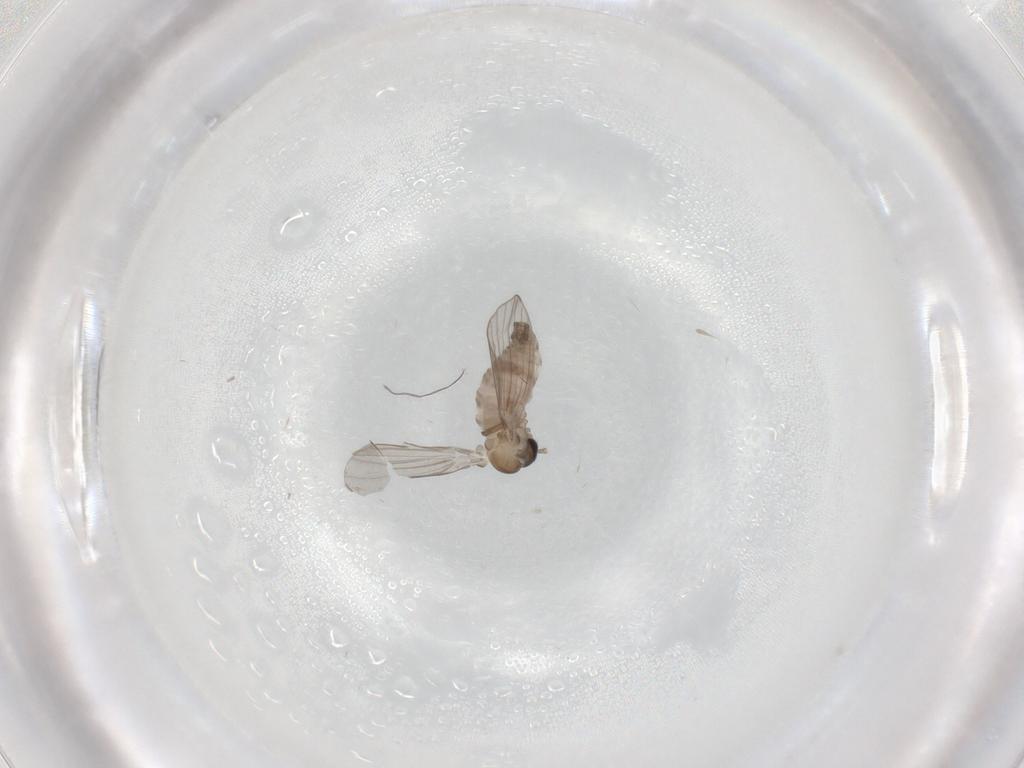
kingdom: Animalia
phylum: Arthropoda
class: Insecta
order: Diptera
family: Psychodidae
